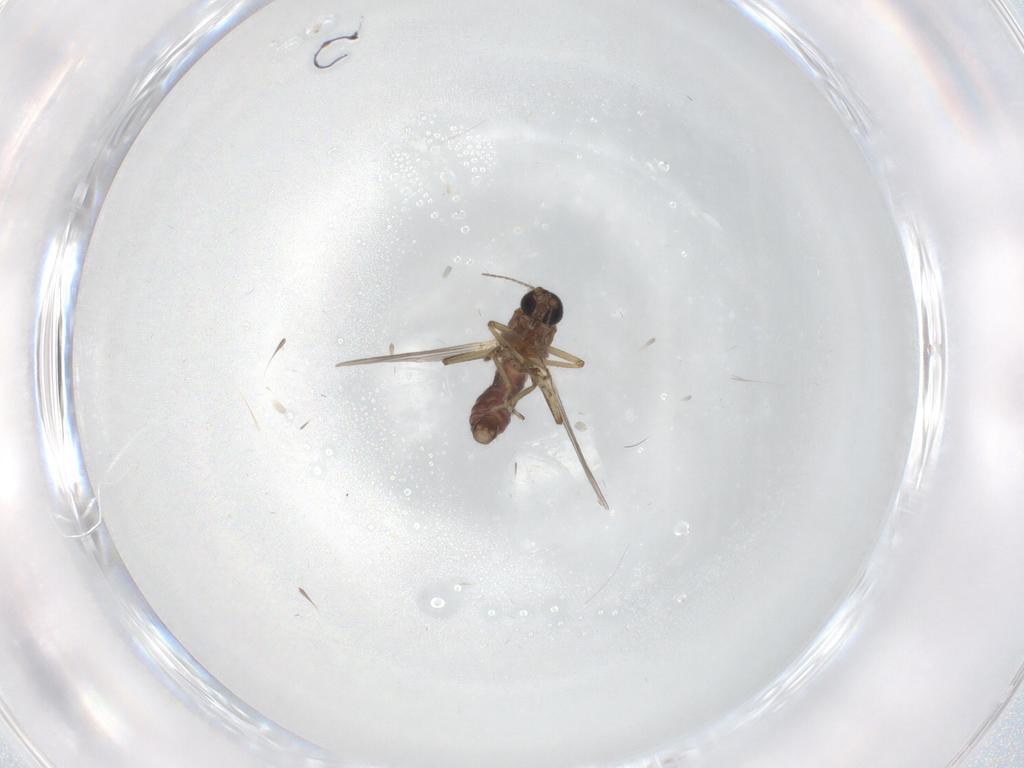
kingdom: Animalia
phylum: Arthropoda
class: Insecta
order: Diptera
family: Ceratopogonidae
